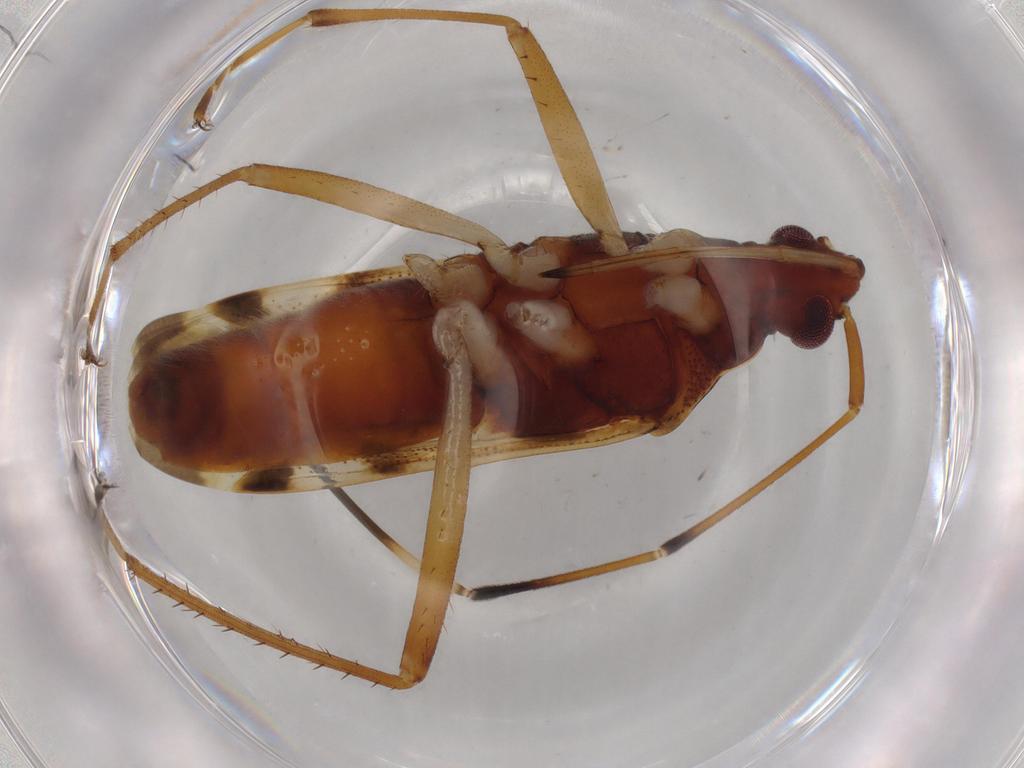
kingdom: Animalia
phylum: Arthropoda
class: Insecta
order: Hemiptera
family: Rhyparochromidae
